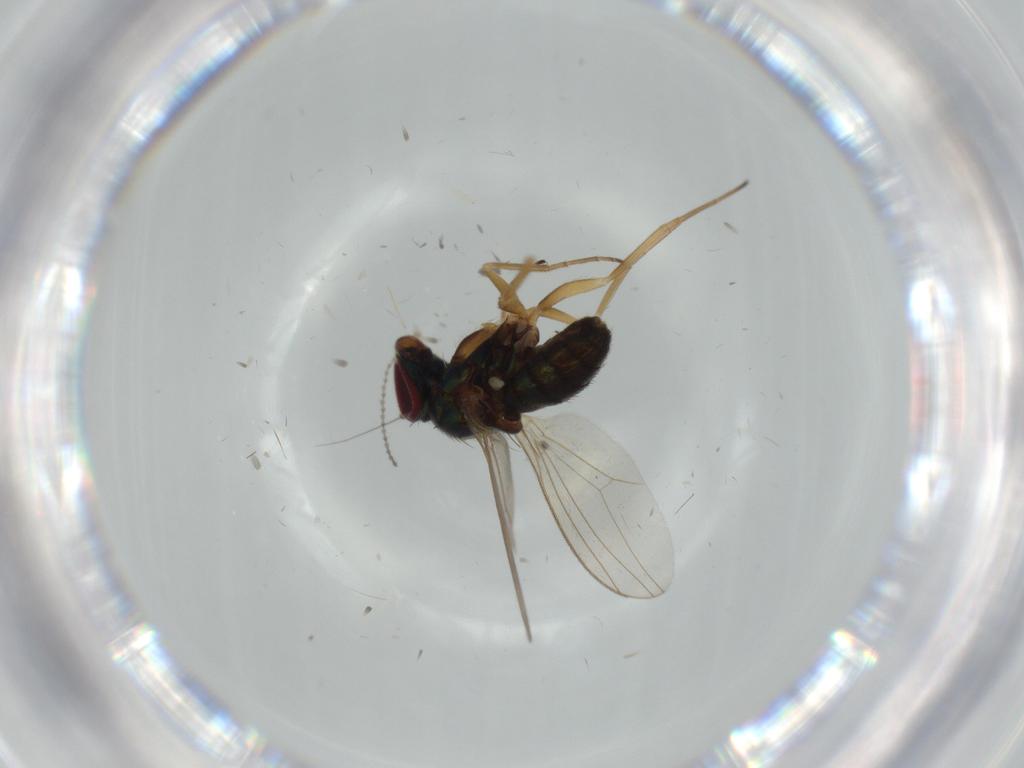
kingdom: Animalia
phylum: Arthropoda
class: Insecta
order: Diptera
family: Dolichopodidae
